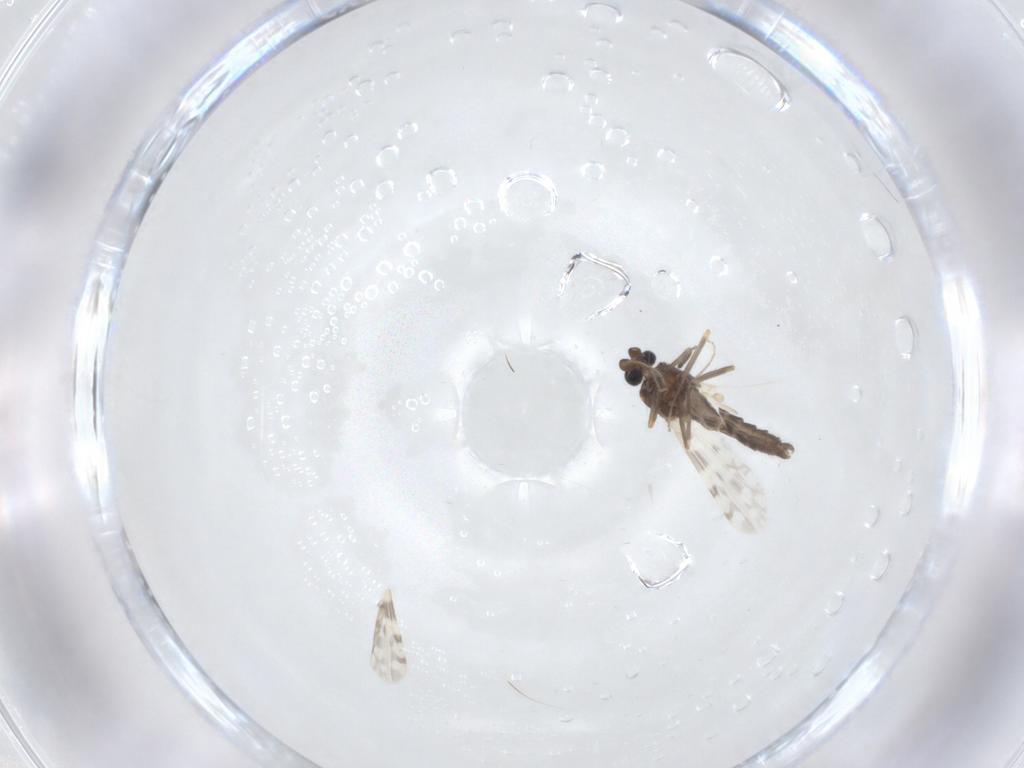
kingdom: Animalia
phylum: Arthropoda
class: Insecta
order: Diptera
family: Ceratopogonidae
